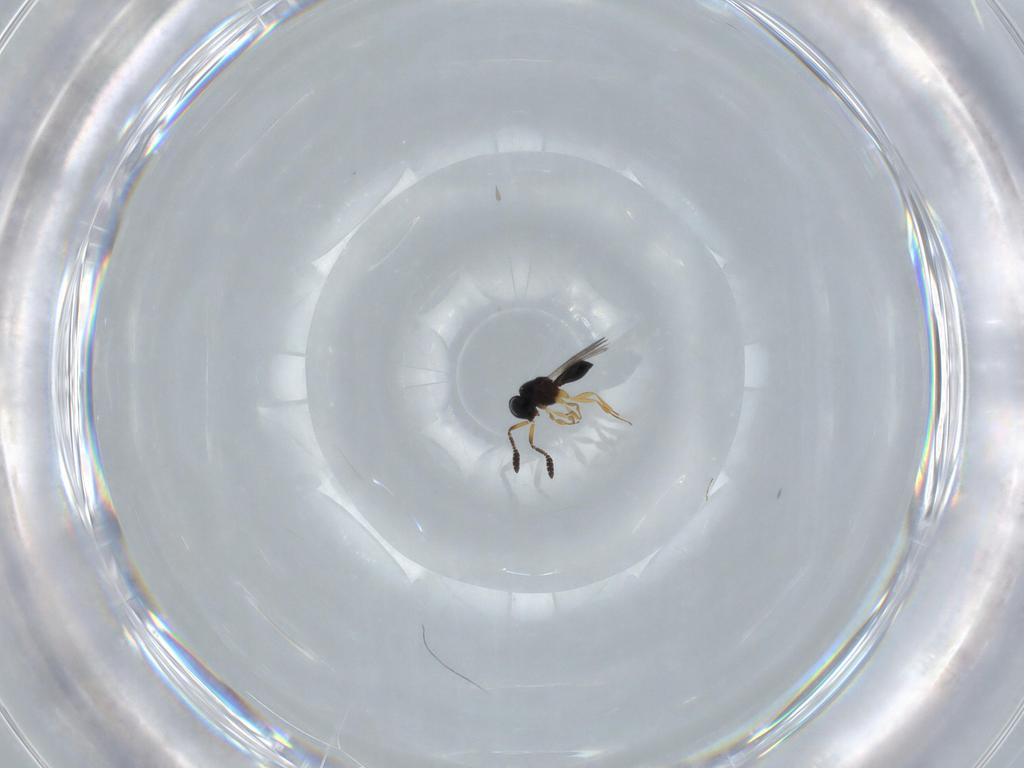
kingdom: Animalia
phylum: Arthropoda
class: Insecta
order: Hymenoptera
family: Scelionidae
